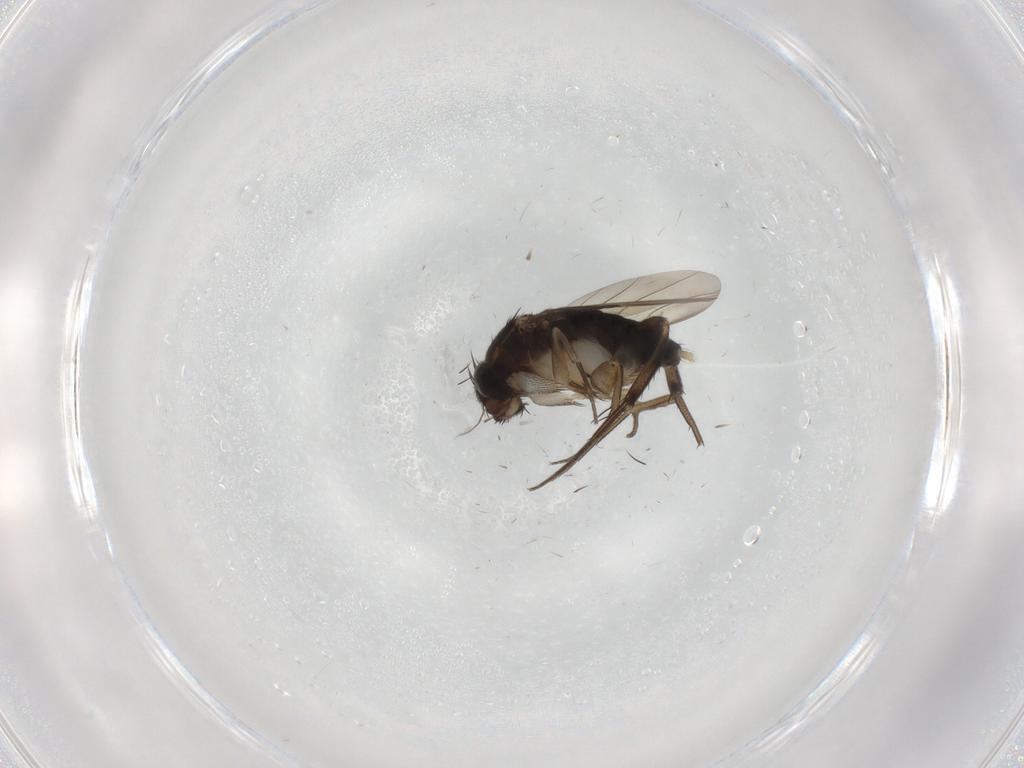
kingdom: Animalia
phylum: Arthropoda
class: Insecta
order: Diptera
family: Phoridae
